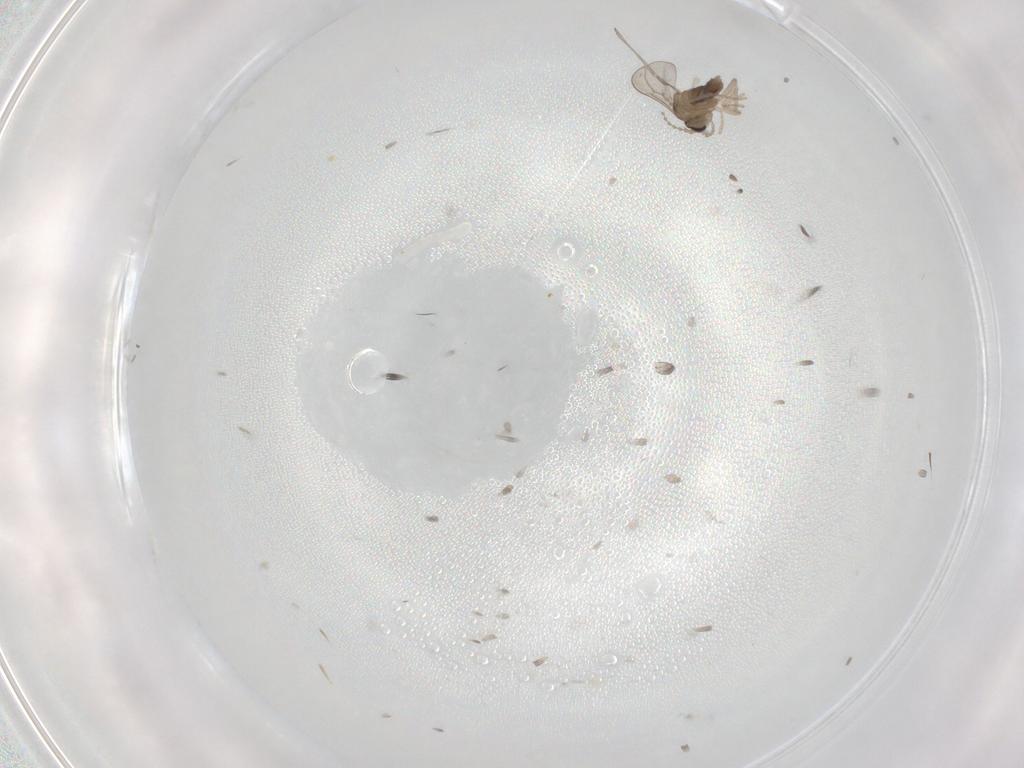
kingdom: Animalia
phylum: Arthropoda
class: Insecta
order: Diptera
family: Cecidomyiidae
